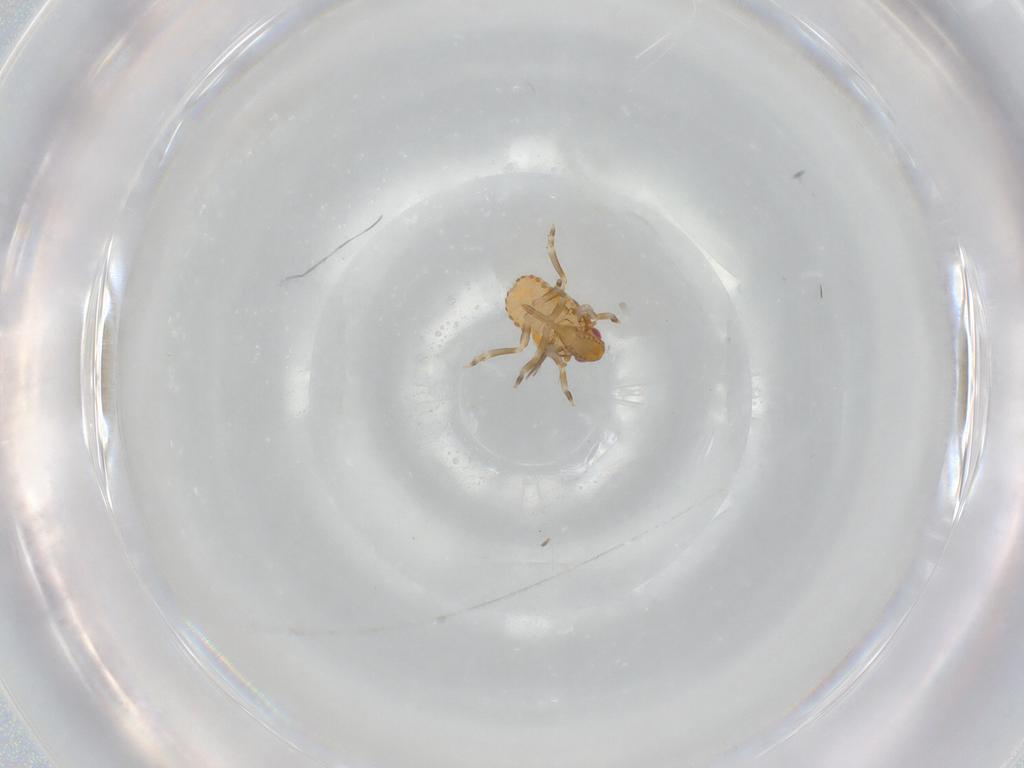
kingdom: Animalia
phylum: Arthropoda
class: Insecta
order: Hemiptera
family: Flatidae
